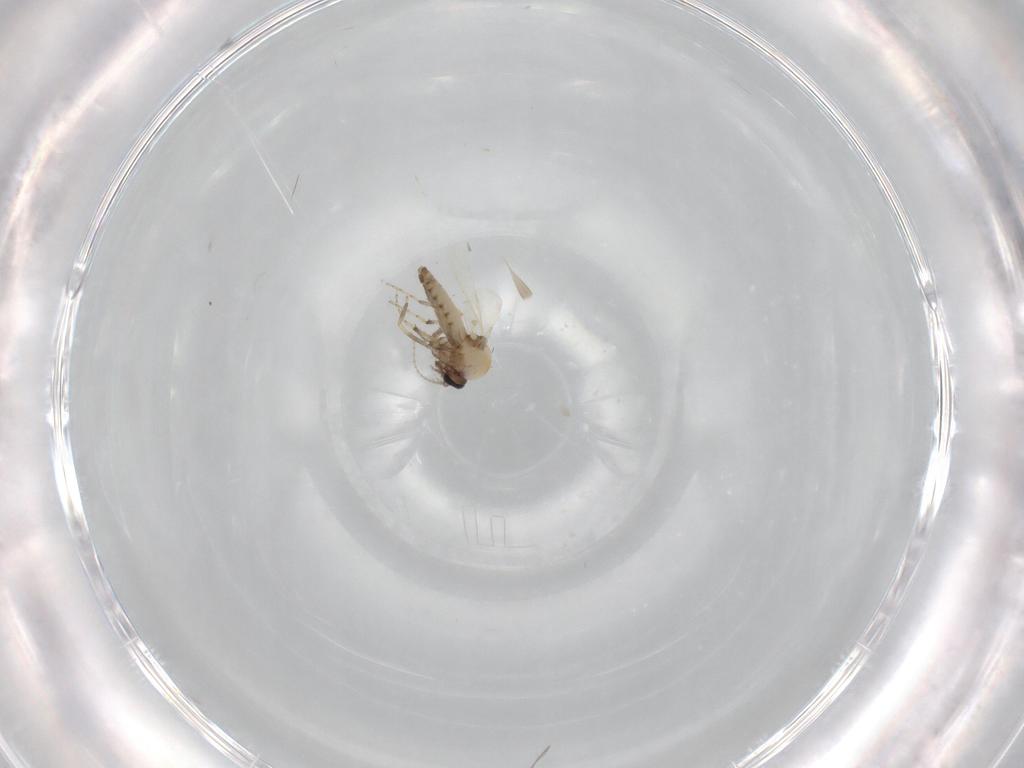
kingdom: Animalia
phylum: Arthropoda
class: Insecta
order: Diptera
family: Ceratopogonidae
